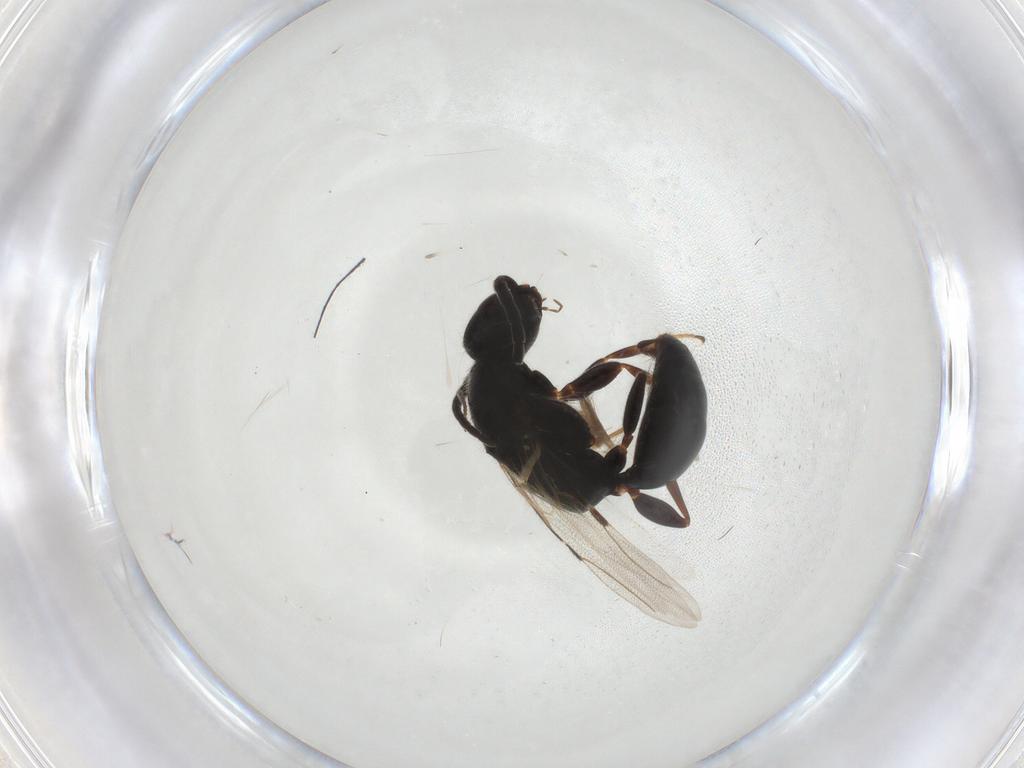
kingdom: Animalia
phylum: Arthropoda
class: Insecta
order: Hymenoptera
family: Bethylidae
